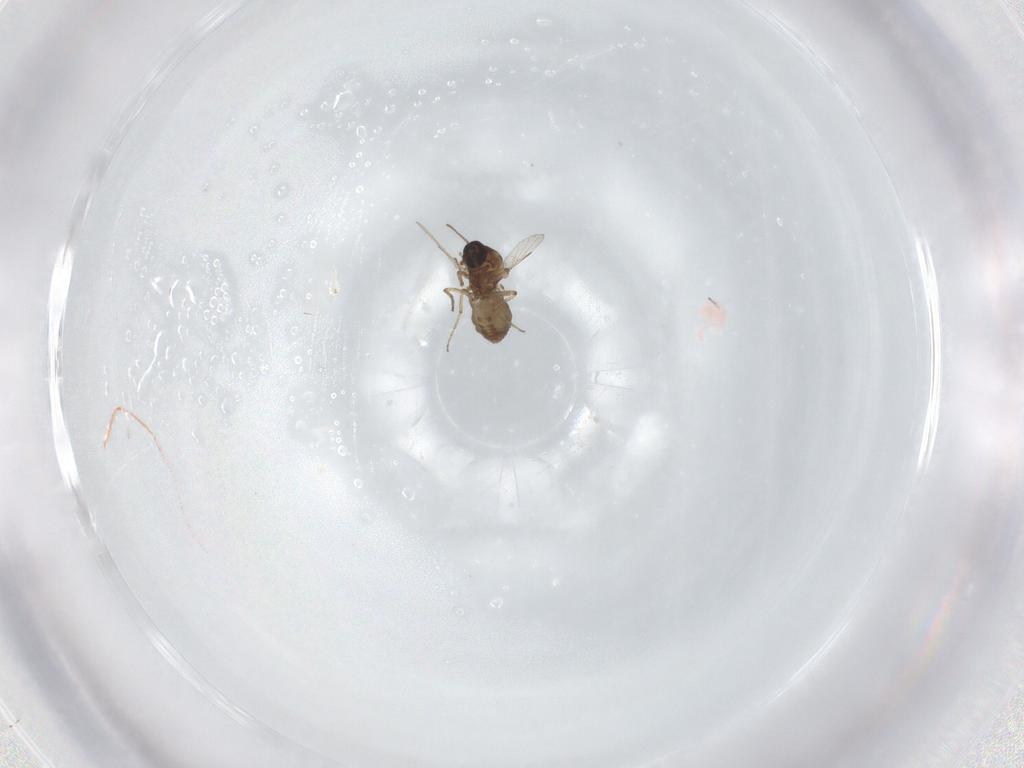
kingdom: Animalia
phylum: Arthropoda
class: Insecta
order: Diptera
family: Ceratopogonidae
